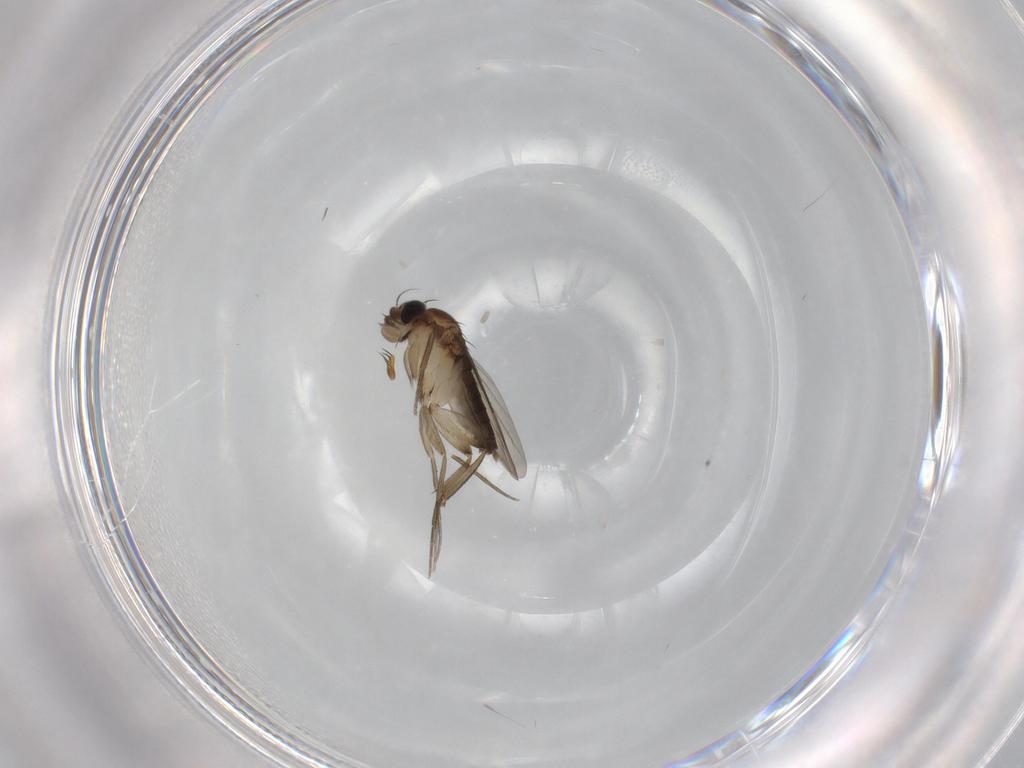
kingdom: Animalia
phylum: Arthropoda
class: Insecta
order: Diptera
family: Phoridae
